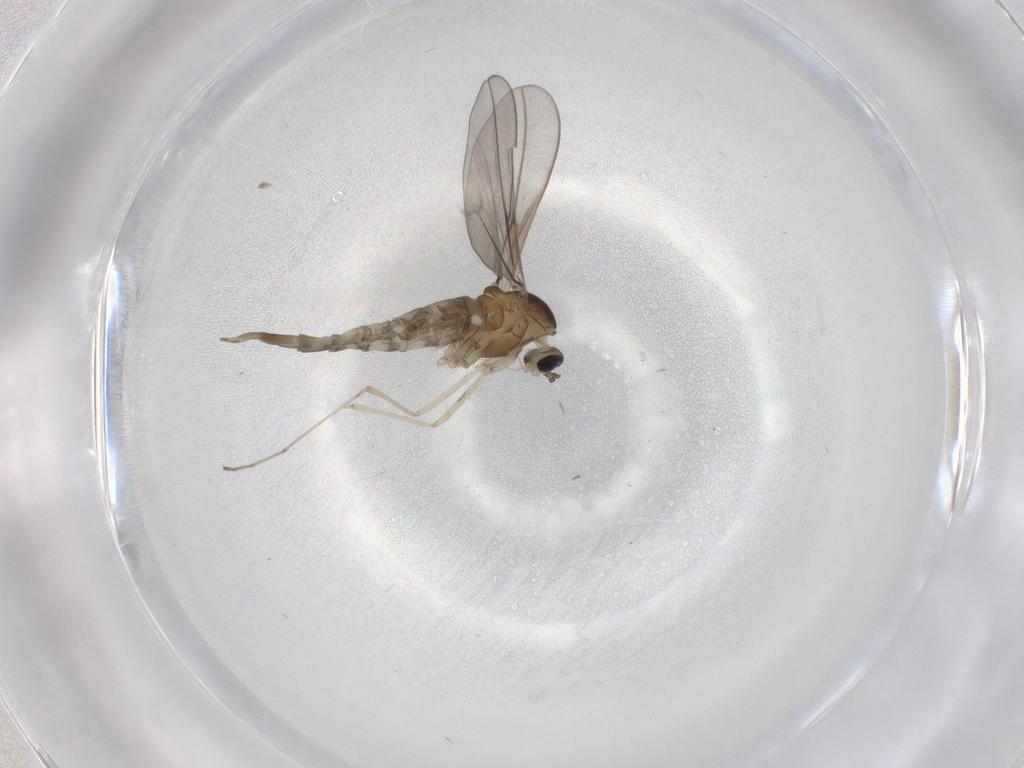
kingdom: Animalia
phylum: Arthropoda
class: Insecta
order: Diptera
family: Cecidomyiidae
